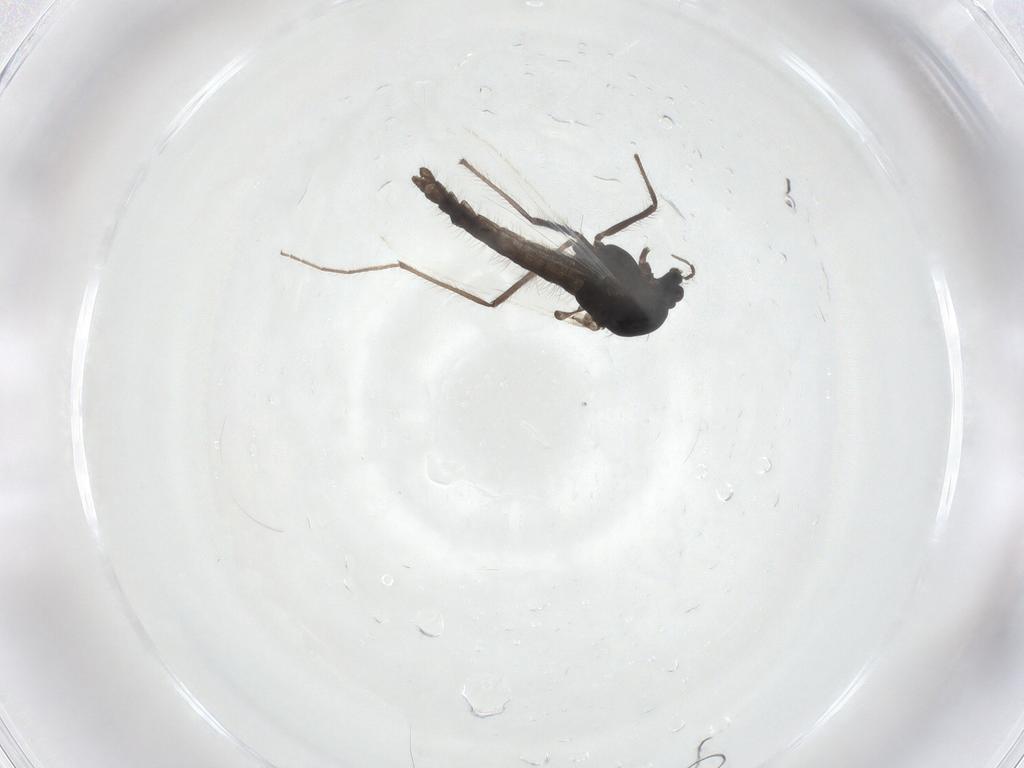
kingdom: Animalia
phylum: Arthropoda
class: Insecta
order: Diptera
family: Chironomidae
